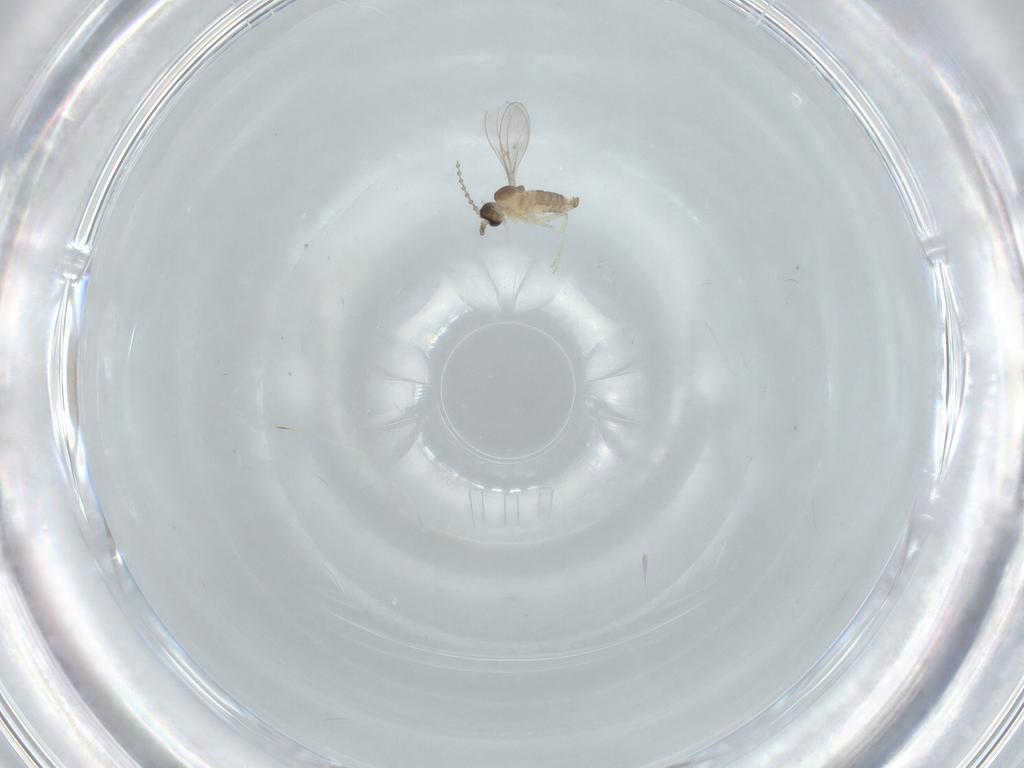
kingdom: Animalia
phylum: Arthropoda
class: Insecta
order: Diptera
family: Cecidomyiidae
